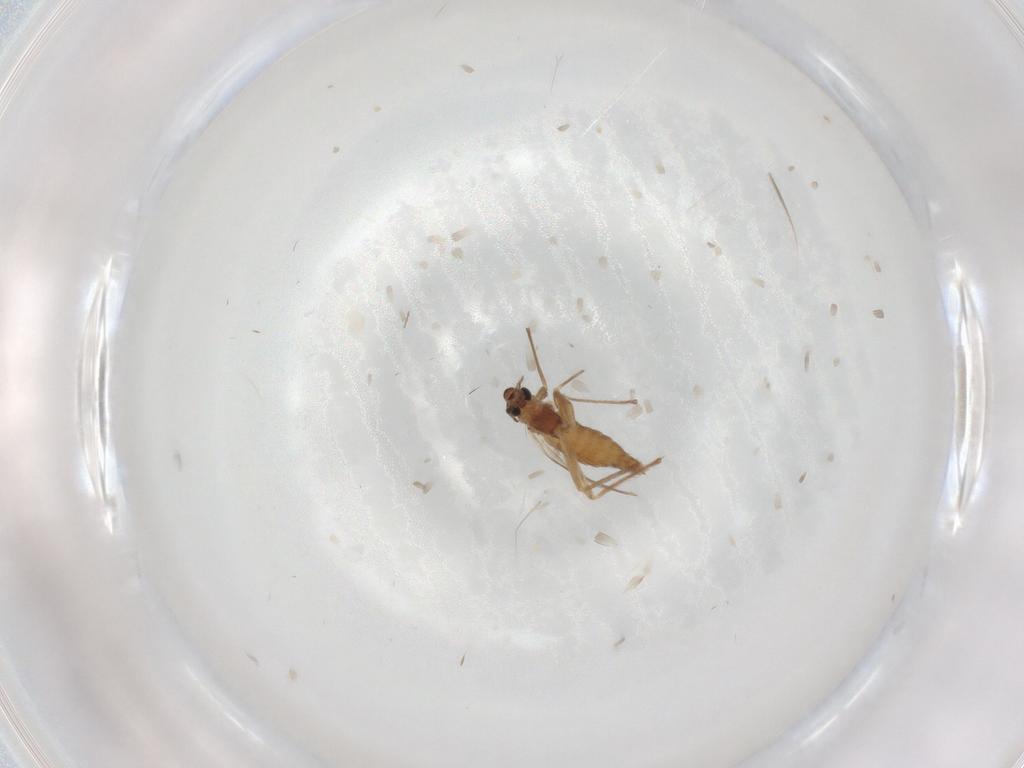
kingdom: Animalia
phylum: Arthropoda
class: Insecta
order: Diptera
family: Chironomidae
